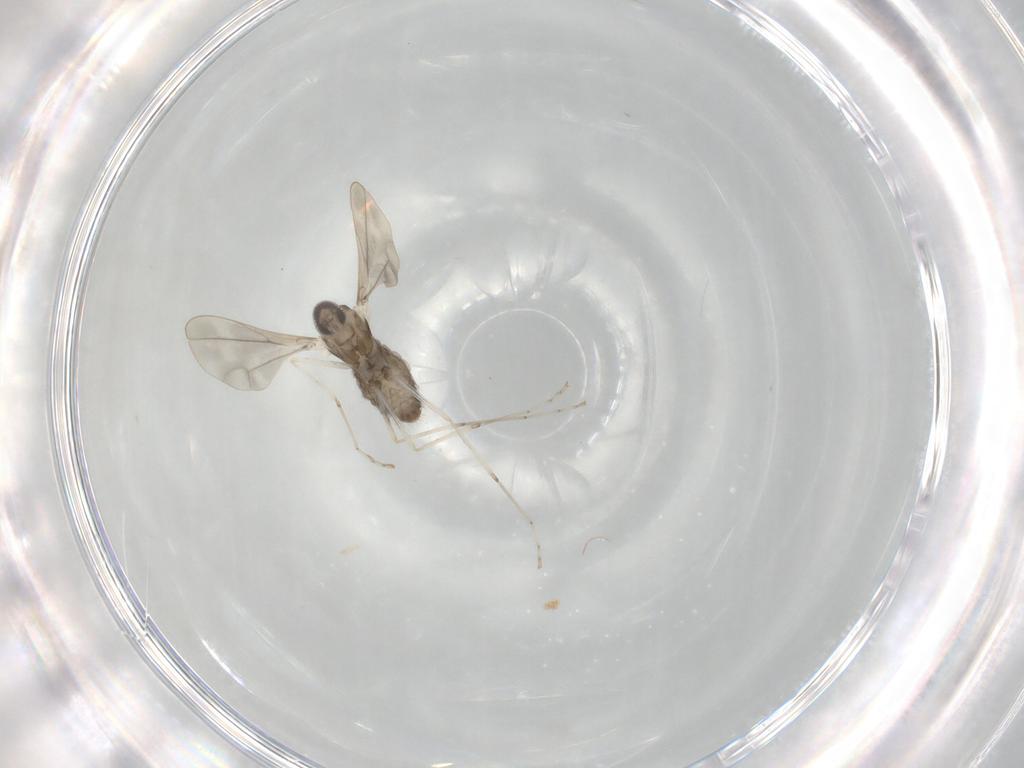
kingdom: Animalia
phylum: Arthropoda
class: Insecta
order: Diptera
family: Cecidomyiidae
